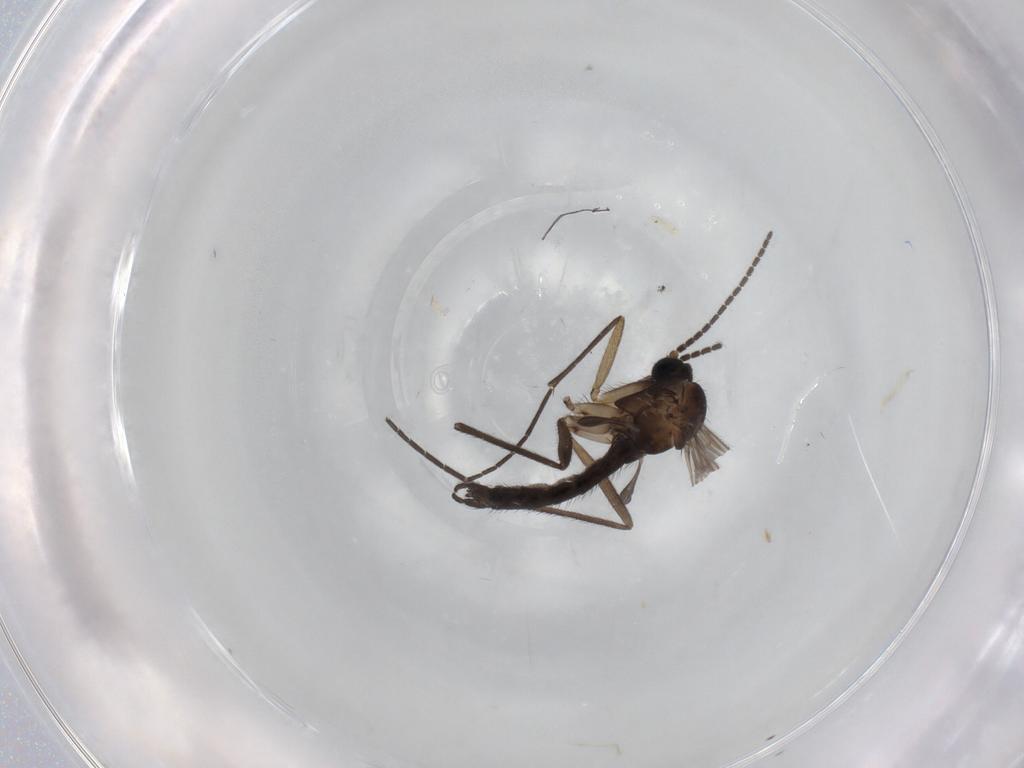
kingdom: Animalia
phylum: Arthropoda
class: Insecta
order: Diptera
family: Sciaridae
